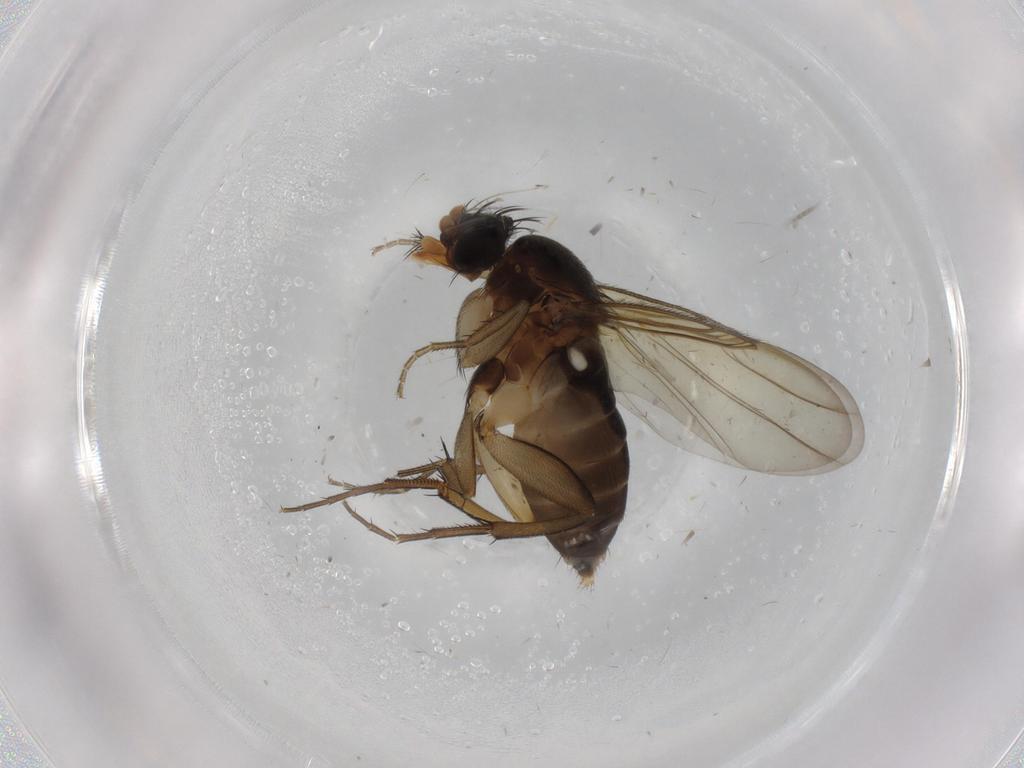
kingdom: Animalia
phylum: Arthropoda
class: Insecta
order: Diptera
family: Phoridae
